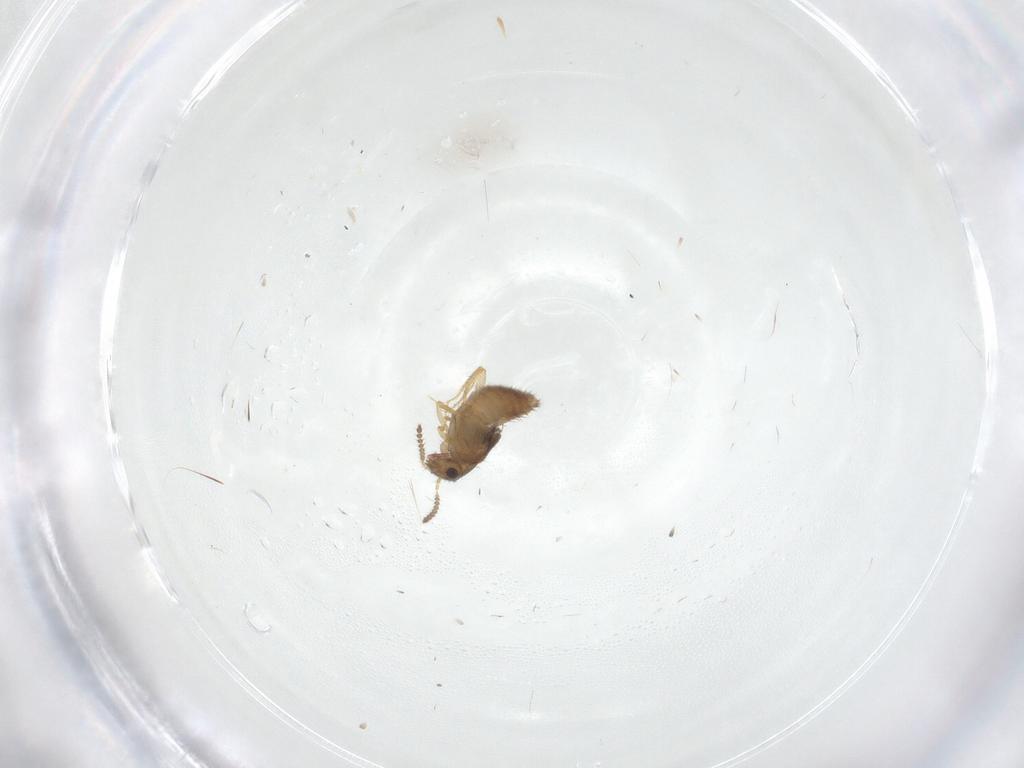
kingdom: Animalia
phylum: Arthropoda
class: Insecta
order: Coleoptera
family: Staphylinidae
